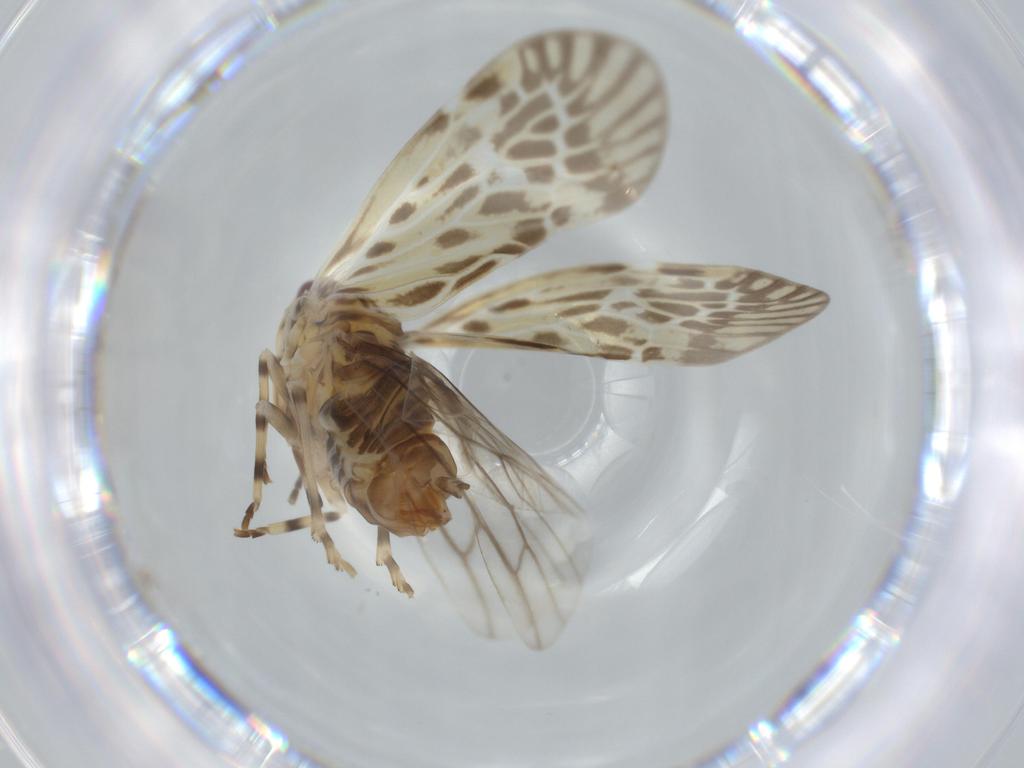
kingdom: Animalia
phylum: Arthropoda
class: Insecta
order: Hemiptera
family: Derbidae
